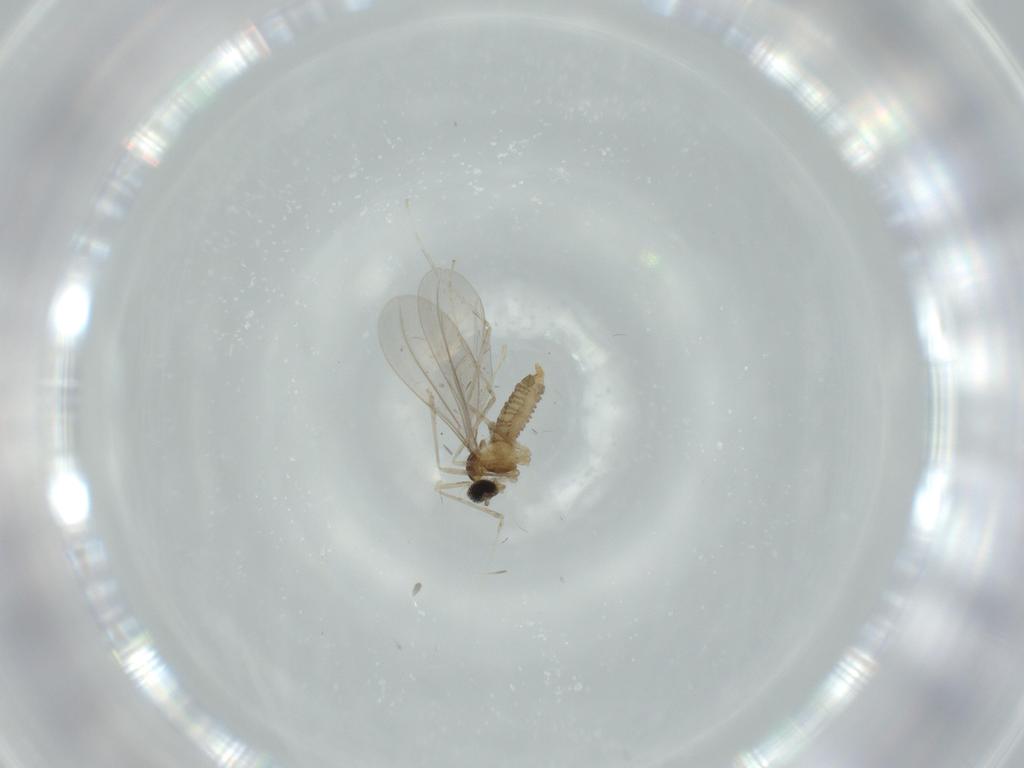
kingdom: Animalia
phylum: Arthropoda
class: Insecta
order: Diptera
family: Cecidomyiidae
